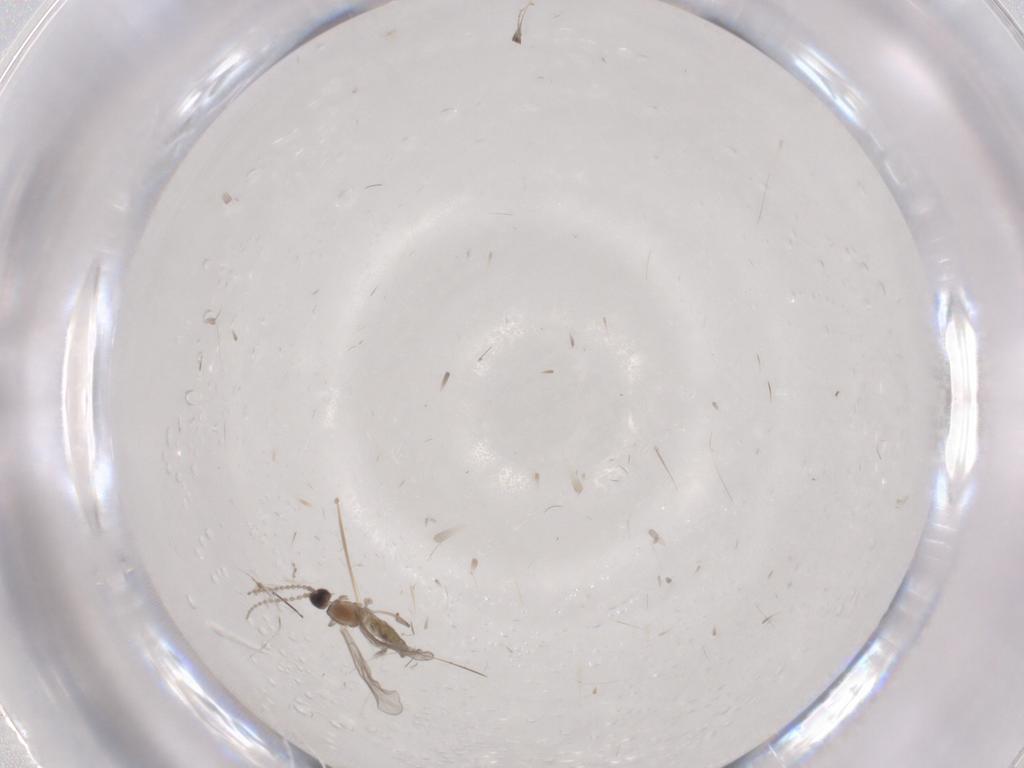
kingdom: Animalia
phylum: Arthropoda
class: Insecta
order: Diptera
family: Cecidomyiidae
